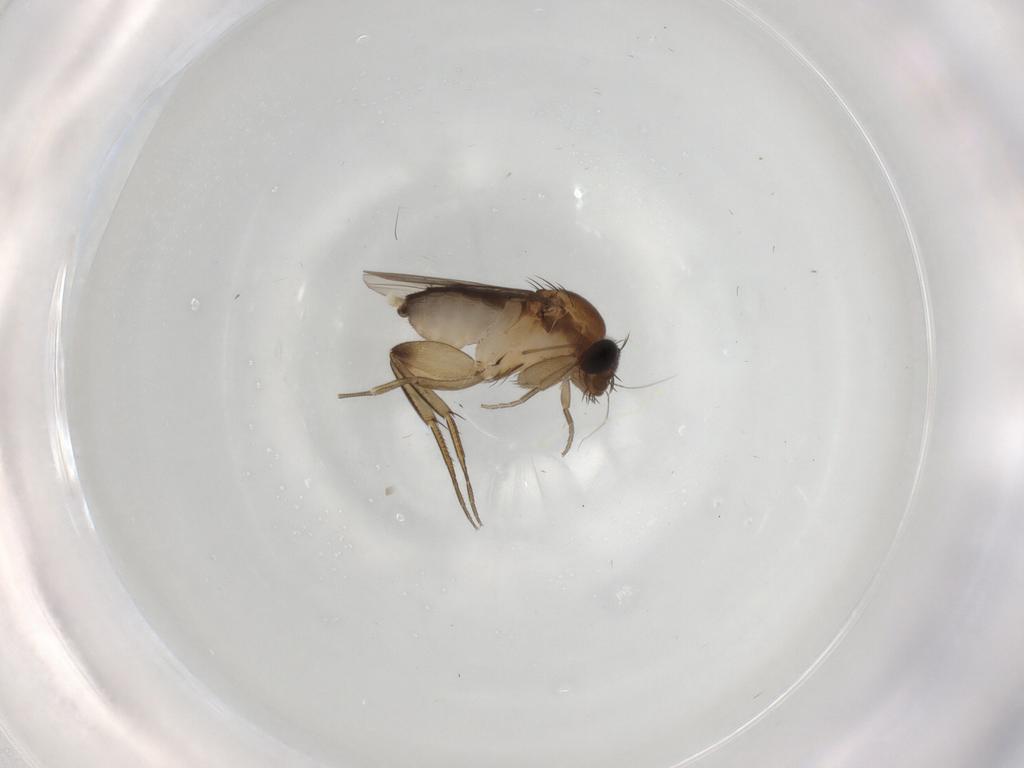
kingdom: Animalia
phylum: Arthropoda
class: Insecta
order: Diptera
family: Phoridae
